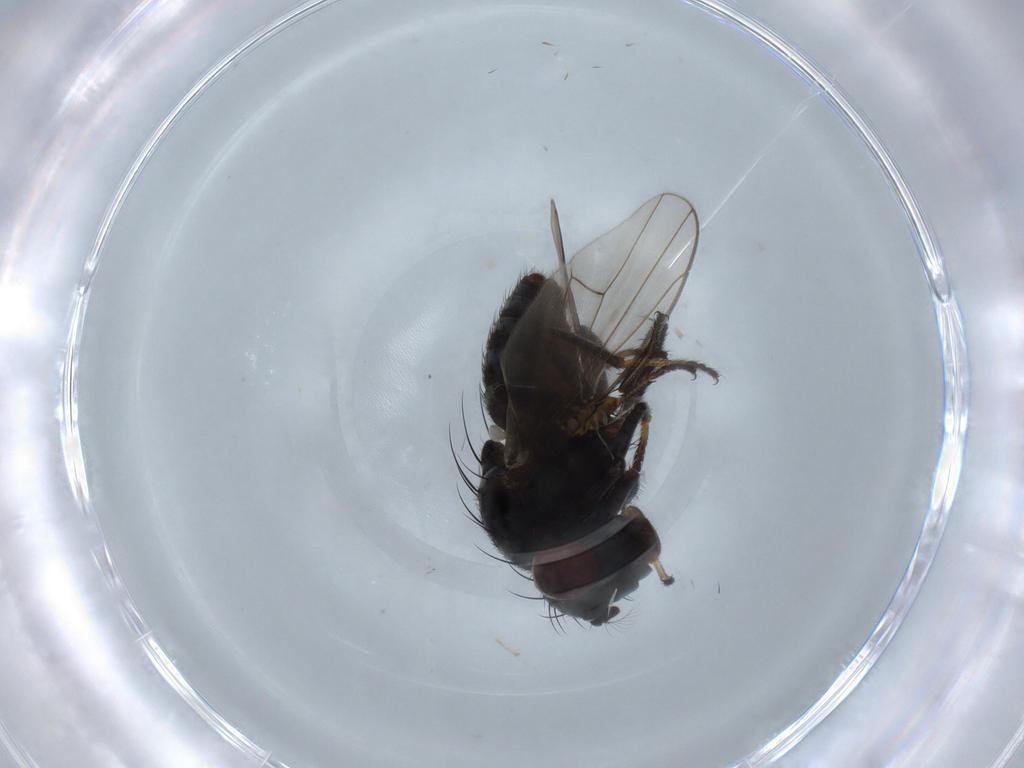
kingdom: Animalia
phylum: Arthropoda
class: Insecta
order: Diptera
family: Ephydridae
